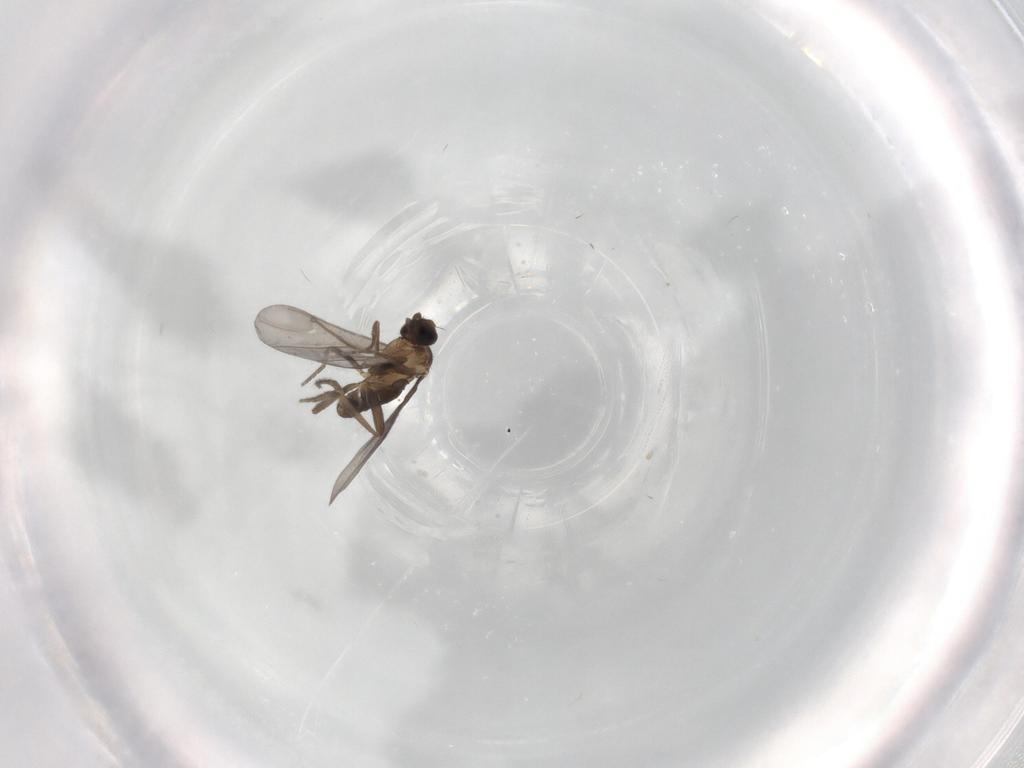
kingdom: Animalia
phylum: Arthropoda
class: Insecta
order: Diptera
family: Phoridae
